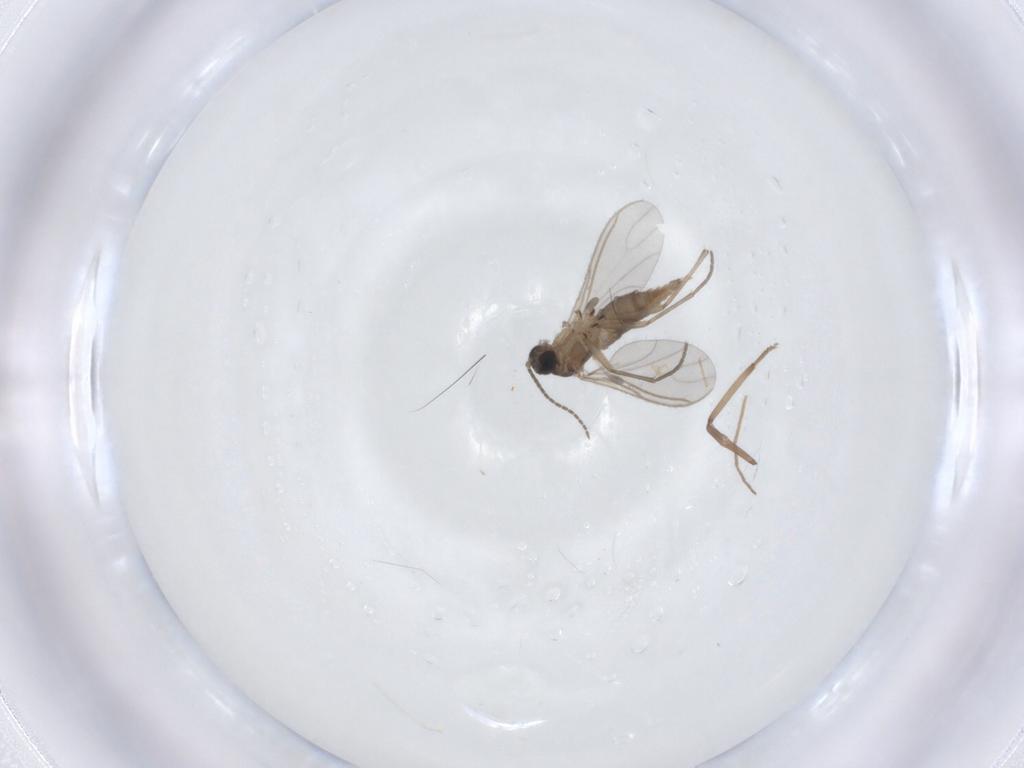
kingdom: Animalia
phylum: Arthropoda
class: Insecta
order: Diptera
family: Sciaridae
